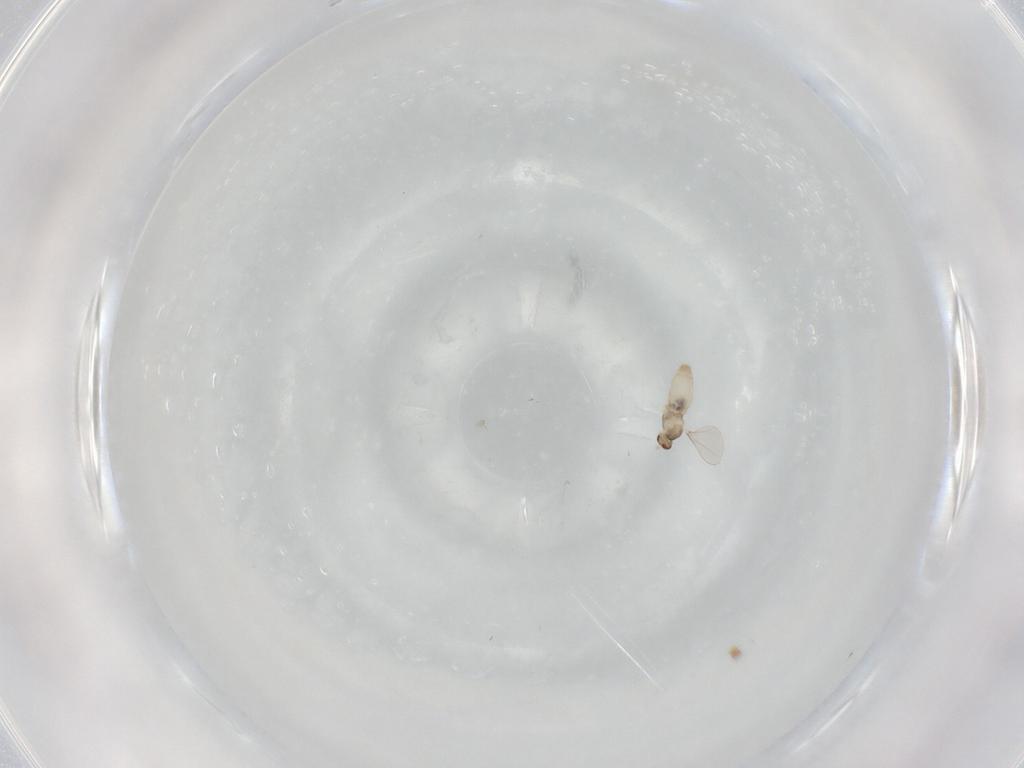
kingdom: Animalia
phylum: Arthropoda
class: Insecta
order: Diptera
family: Cecidomyiidae
